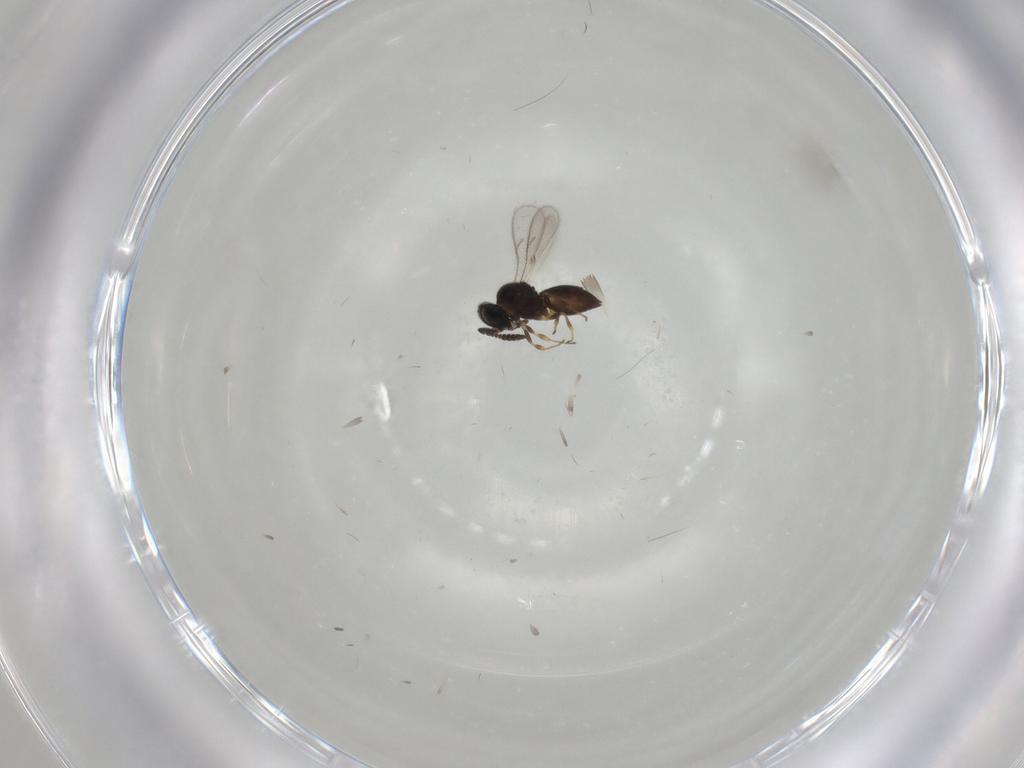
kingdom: Animalia
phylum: Arthropoda
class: Insecta
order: Hymenoptera
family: Scelionidae
